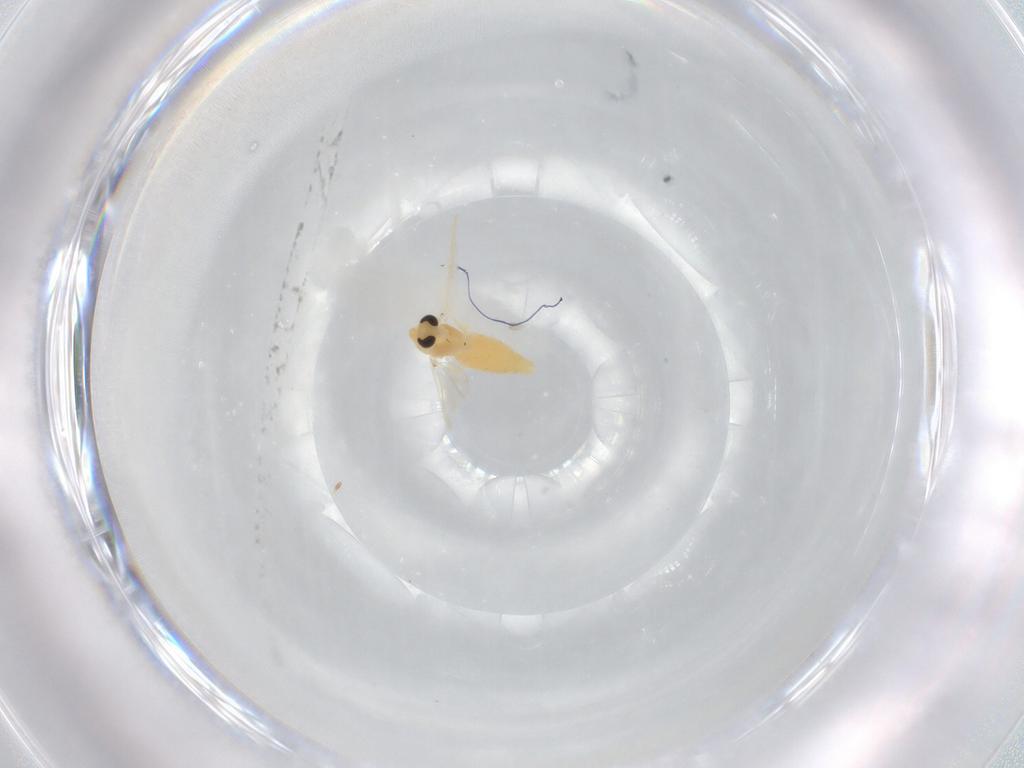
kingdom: Animalia
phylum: Arthropoda
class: Insecta
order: Diptera
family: Chironomidae
